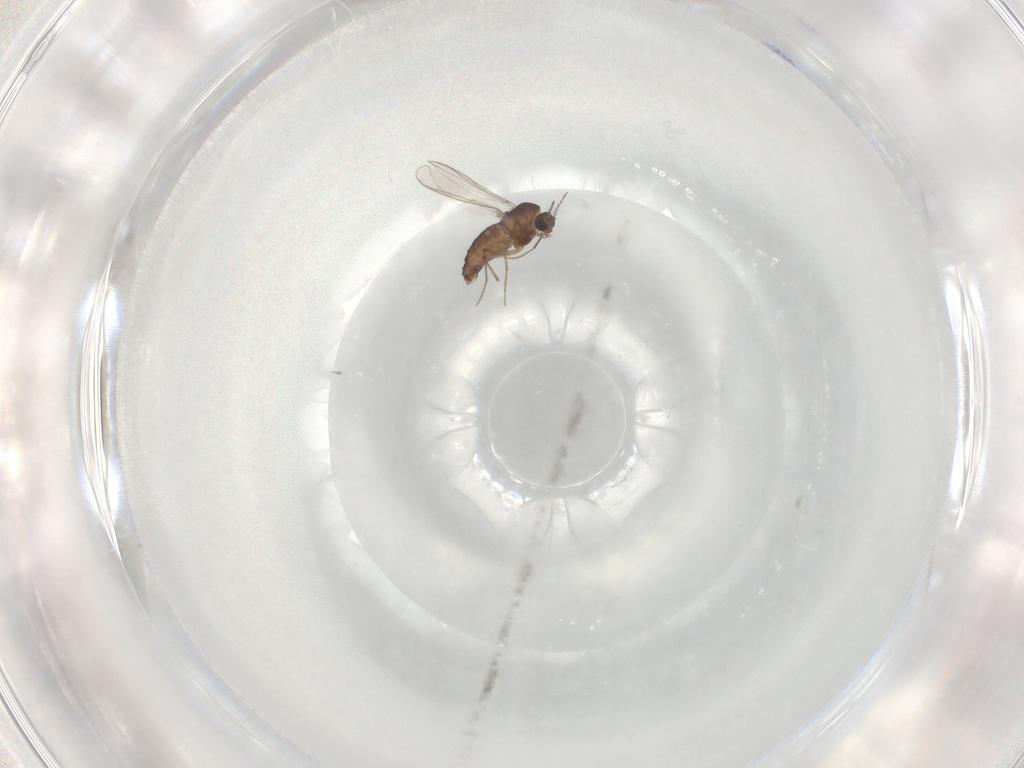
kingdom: Animalia
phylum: Arthropoda
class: Insecta
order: Diptera
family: Chironomidae
